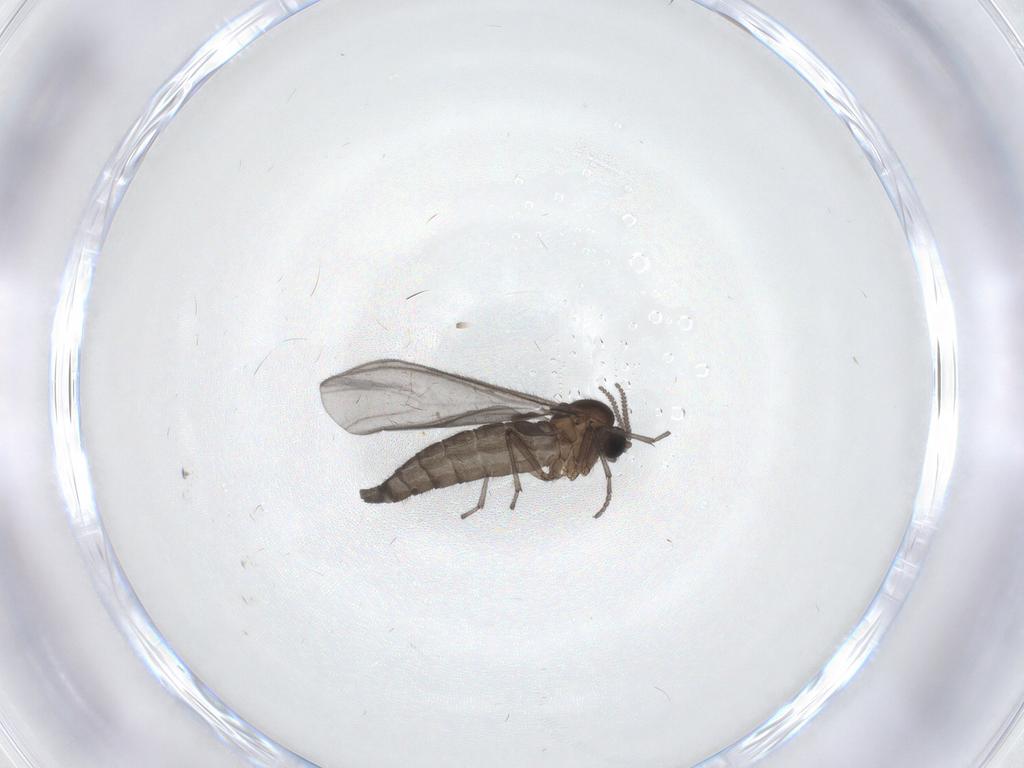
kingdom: Animalia
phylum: Arthropoda
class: Insecta
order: Diptera
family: Sciaridae
